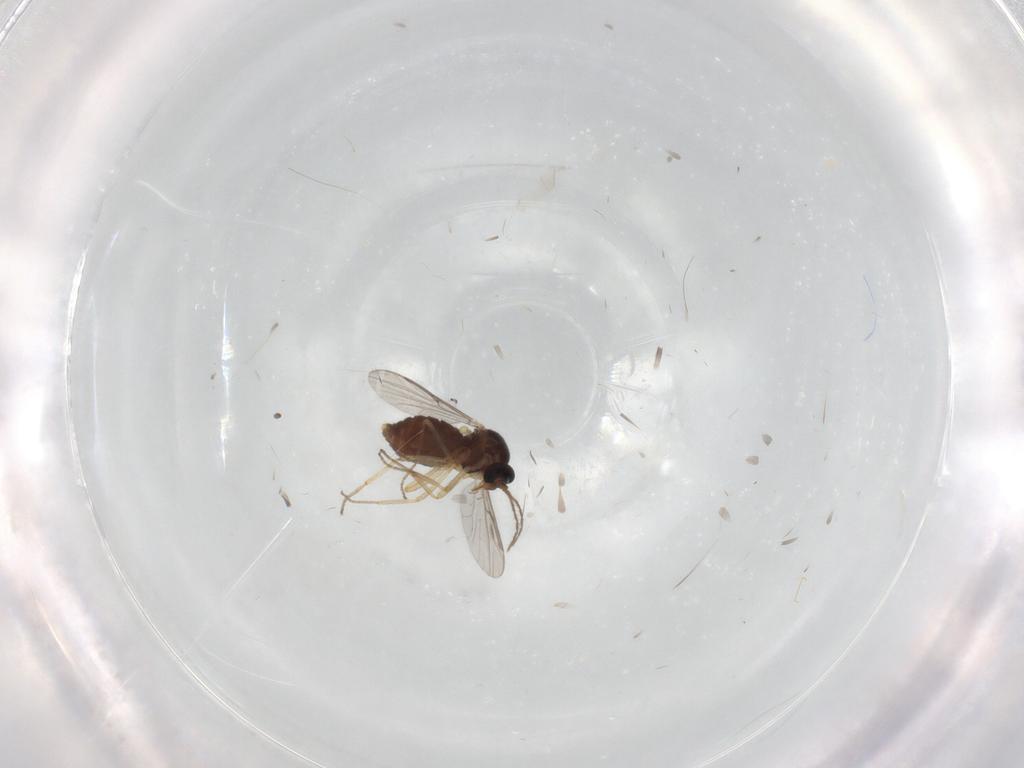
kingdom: Animalia
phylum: Arthropoda
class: Insecta
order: Diptera
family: Ceratopogonidae
